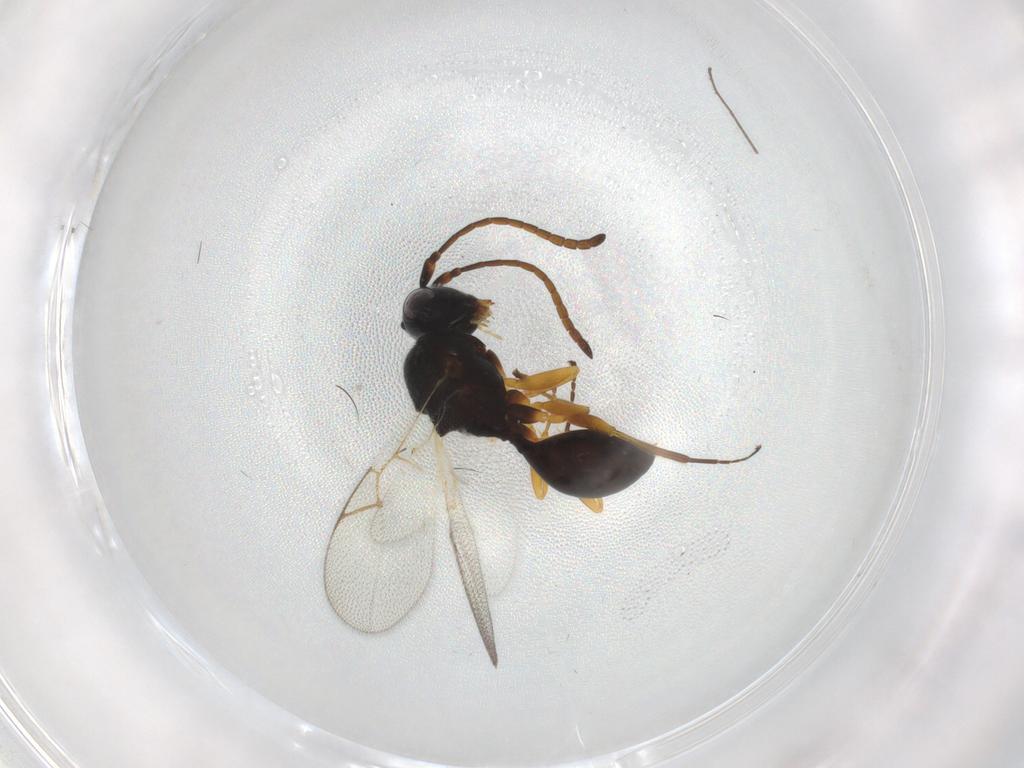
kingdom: Animalia
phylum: Arthropoda
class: Insecta
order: Hymenoptera
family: Figitidae
